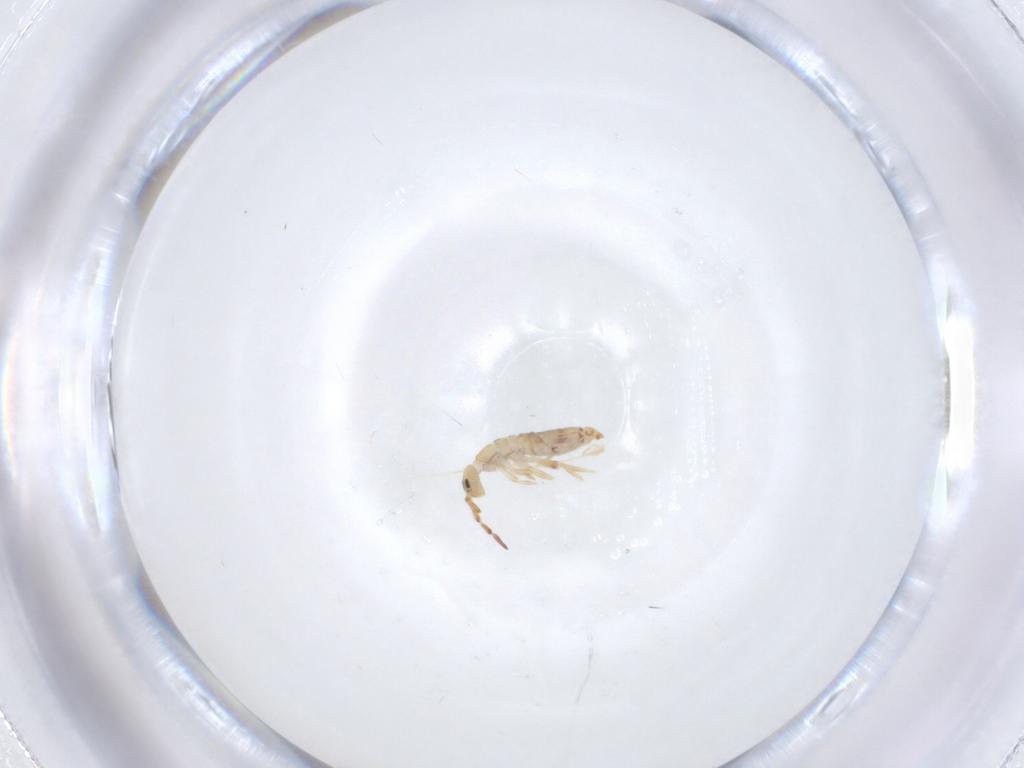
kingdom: Animalia
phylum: Arthropoda
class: Collembola
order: Entomobryomorpha
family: Entomobryidae
